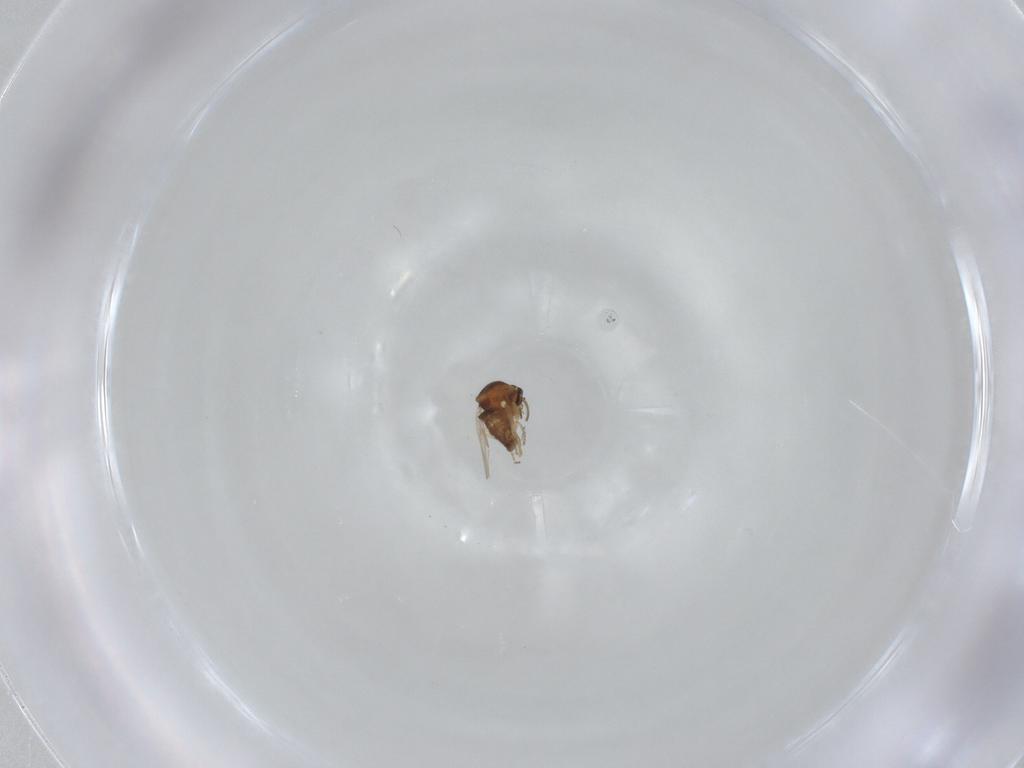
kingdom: Animalia
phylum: Arthropoda
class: Insecta
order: Diptera
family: Ceratopogonidae
